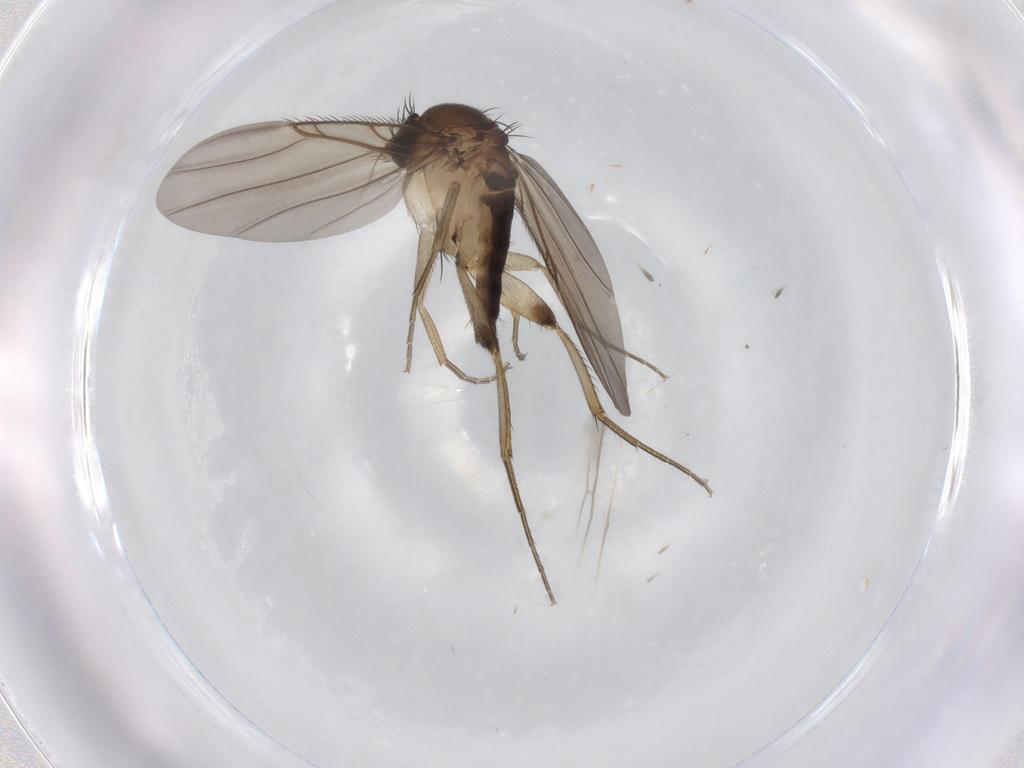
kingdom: Animalia
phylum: Arthropoda
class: Insecta
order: Diptera
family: Phoridae
